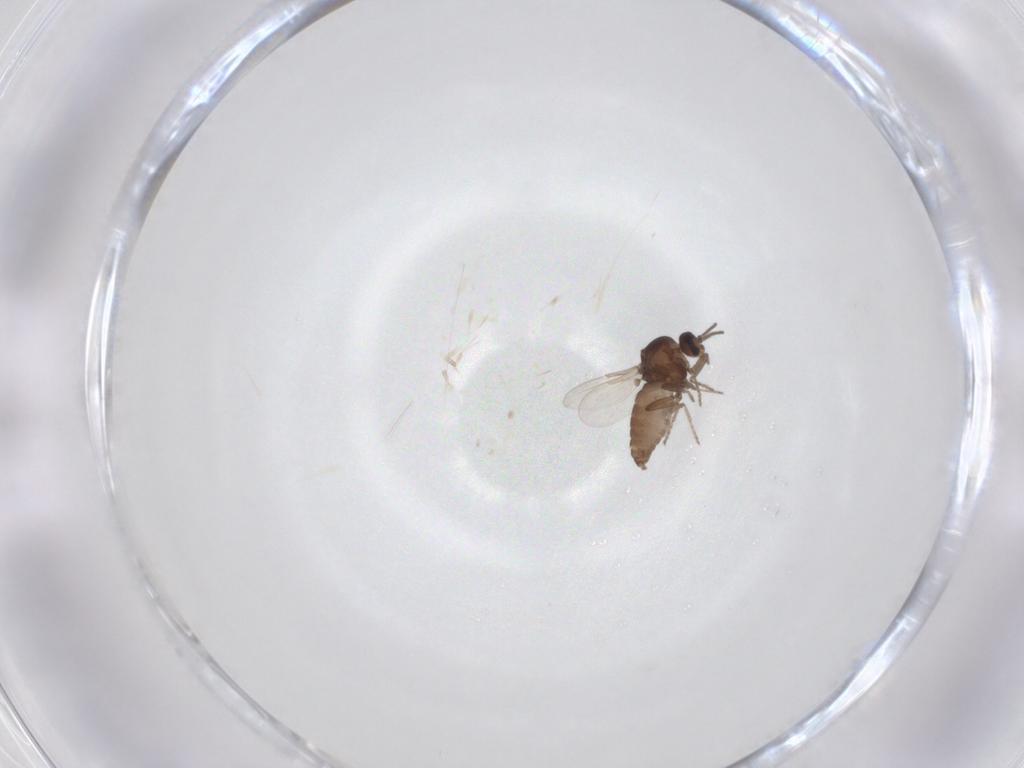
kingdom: Animalia
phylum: Arthropoda
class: Insecta
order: Diptera
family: Ceratopogonidae
